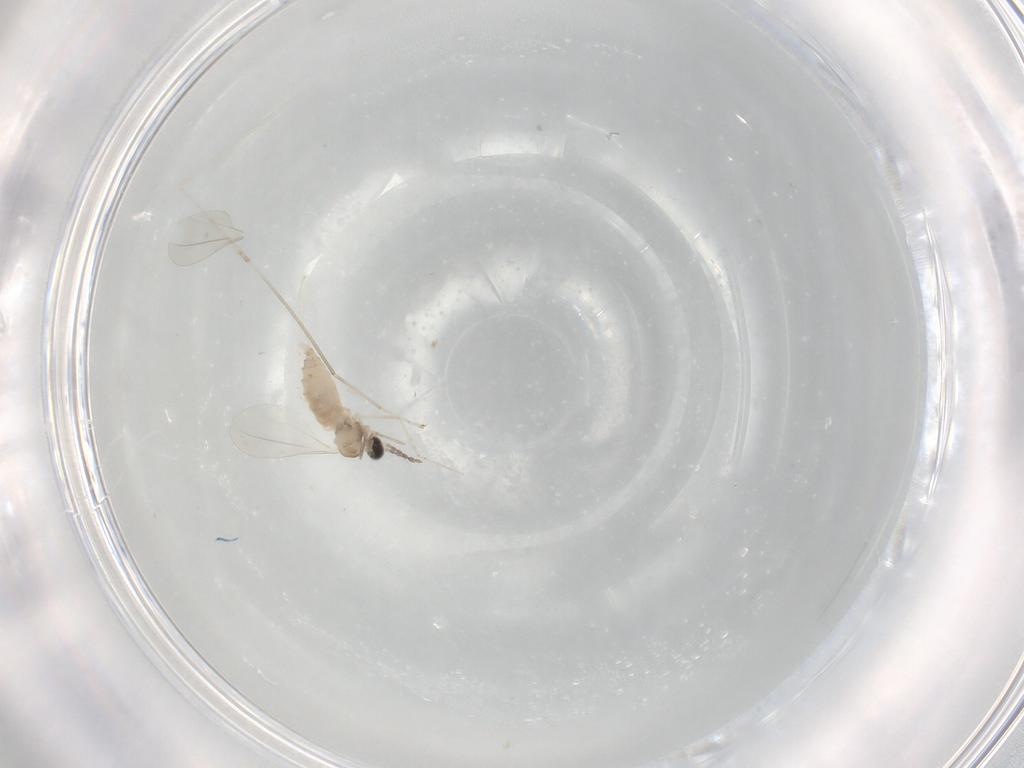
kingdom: Animalia
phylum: Arthropoda
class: Insecta
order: Diptera
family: Cecidomyiidae
